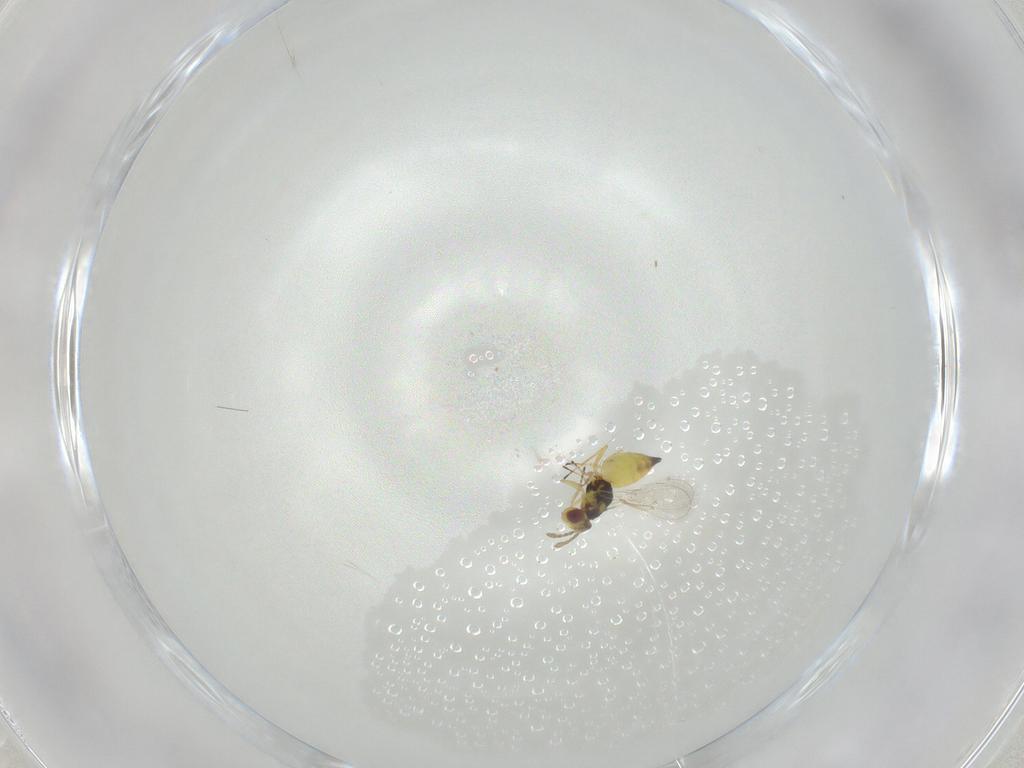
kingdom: Animalia
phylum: Arthropoda
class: Insecta
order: Hymenoptera
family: Eulophidae
